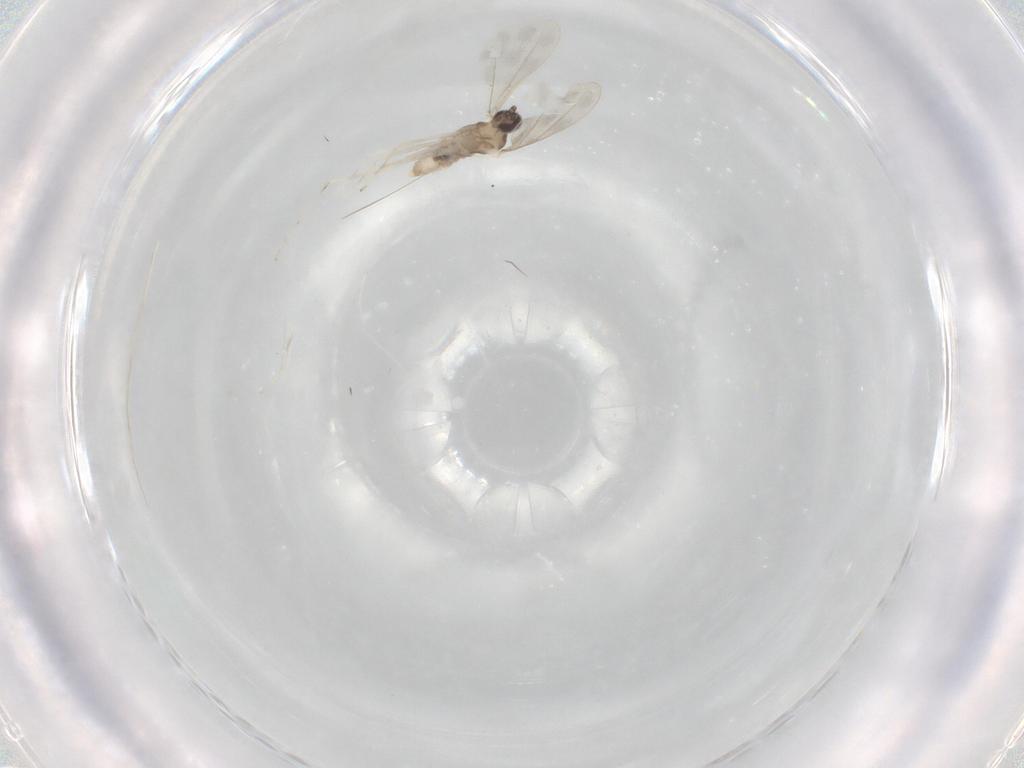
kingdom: Animalia
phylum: Arthropoda
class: Insecta
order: Diptera
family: Cecidomyiidae
